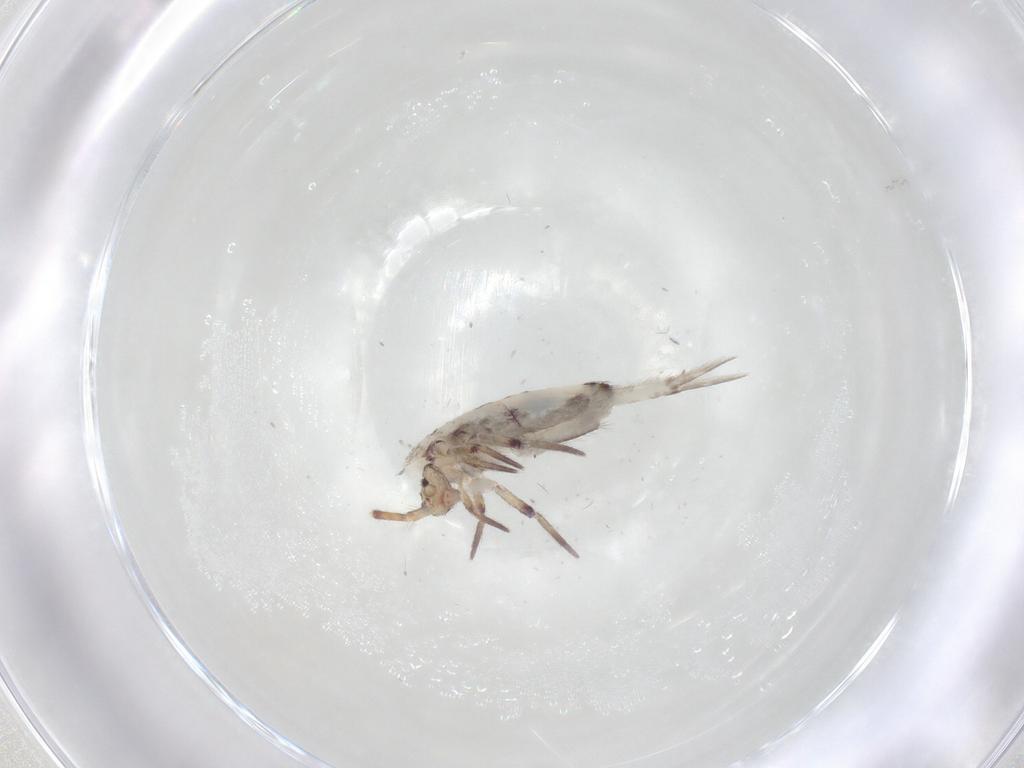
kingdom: Animalia
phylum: Arthropoda
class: Collembola
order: Entomobryomorpha
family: Entomobryidae
